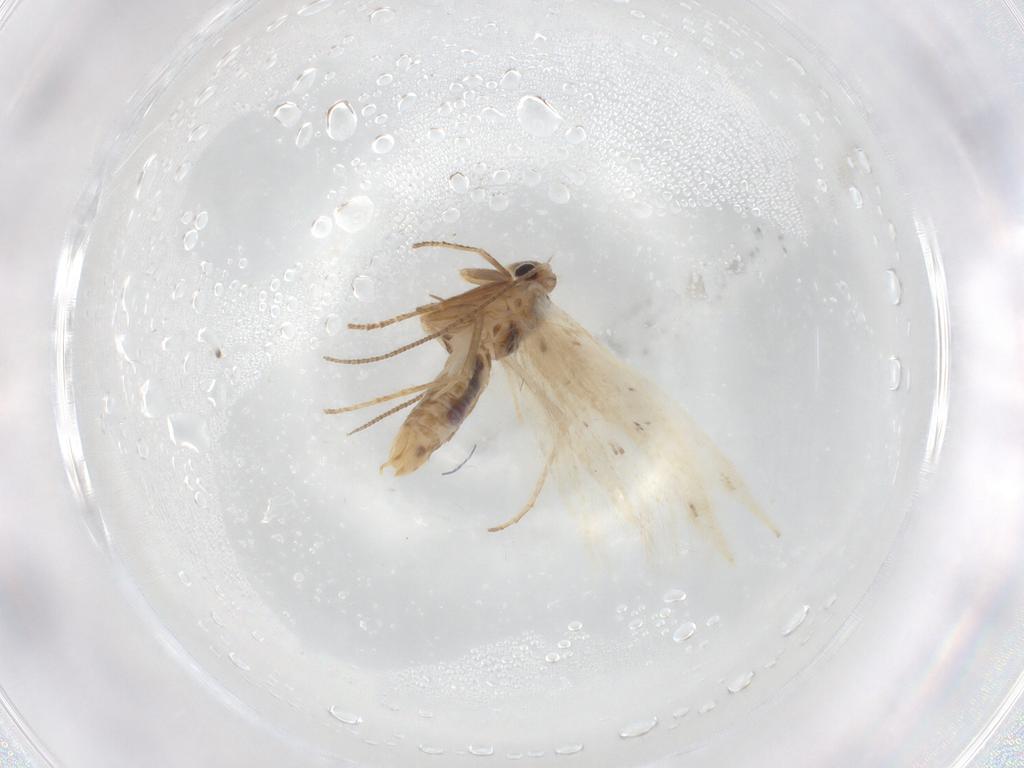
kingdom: Animalia
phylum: Arthropoda
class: Insecta
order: Lepidoptera
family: Bucculatricidae
